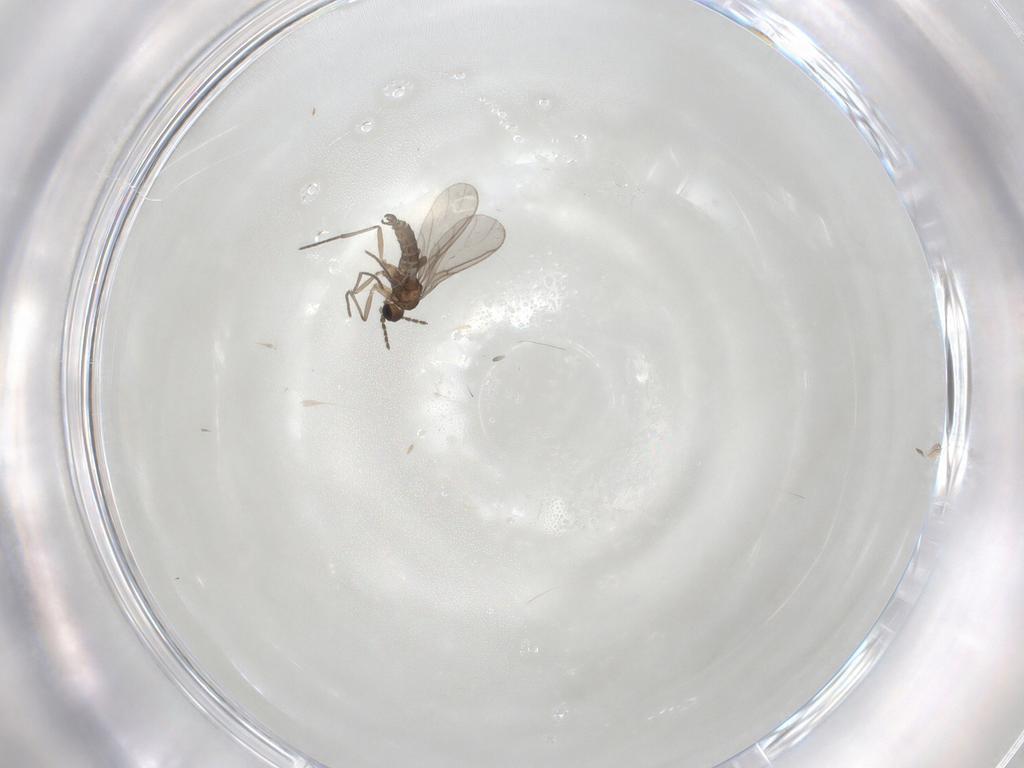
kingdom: Animalia
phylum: Arthropoda
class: Insecta
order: Diptera
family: Sciaridae
